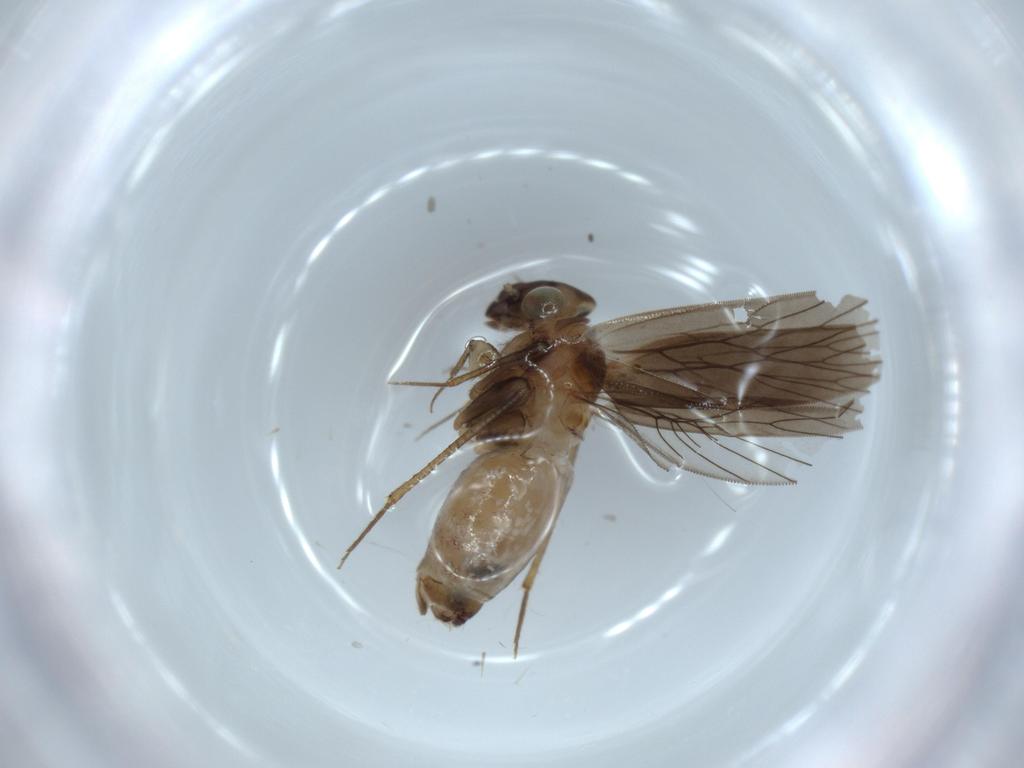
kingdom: Animalia
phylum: Arthropoda
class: Insecta
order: Psocodea
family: Lepidopsocidae
